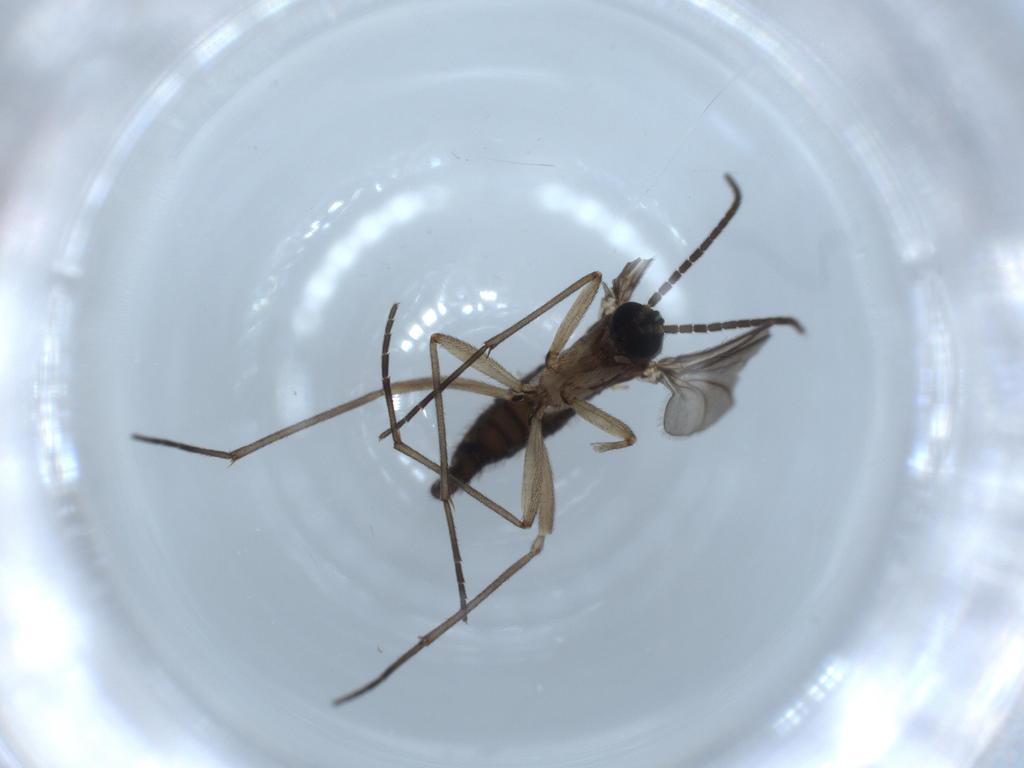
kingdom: Animalia
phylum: Arthropoda
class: Insecta
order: Diptera
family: Sciaridae
